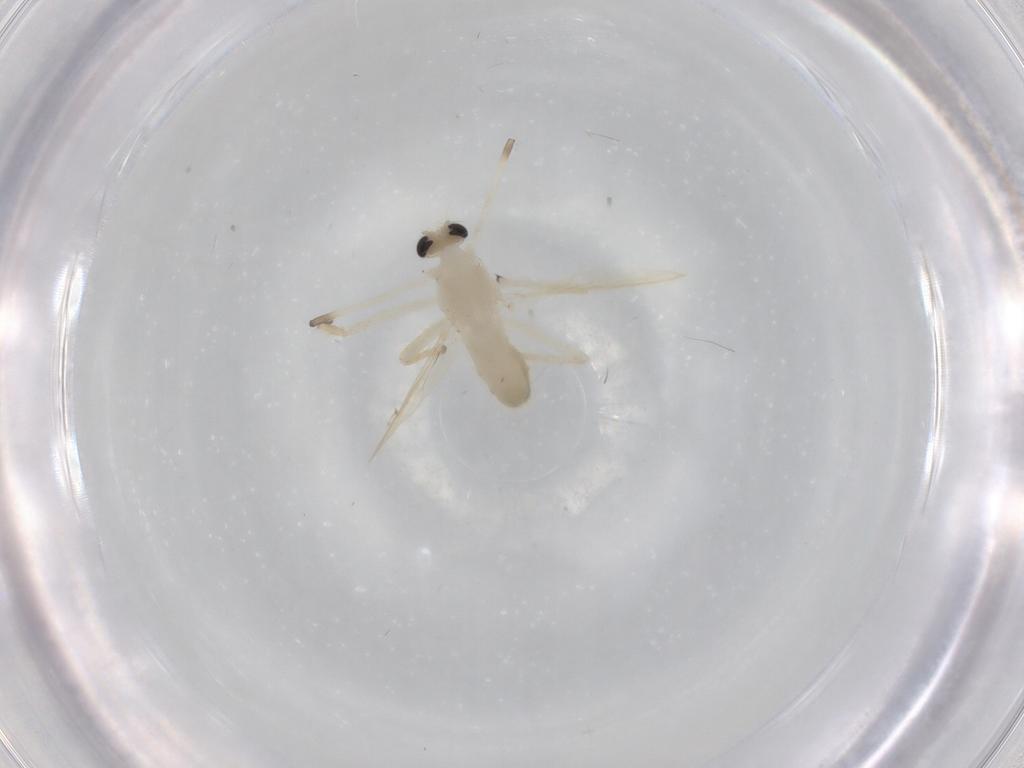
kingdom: Animalia
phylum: Arthropoda
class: Insecta
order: Diptera
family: Chironomidae
